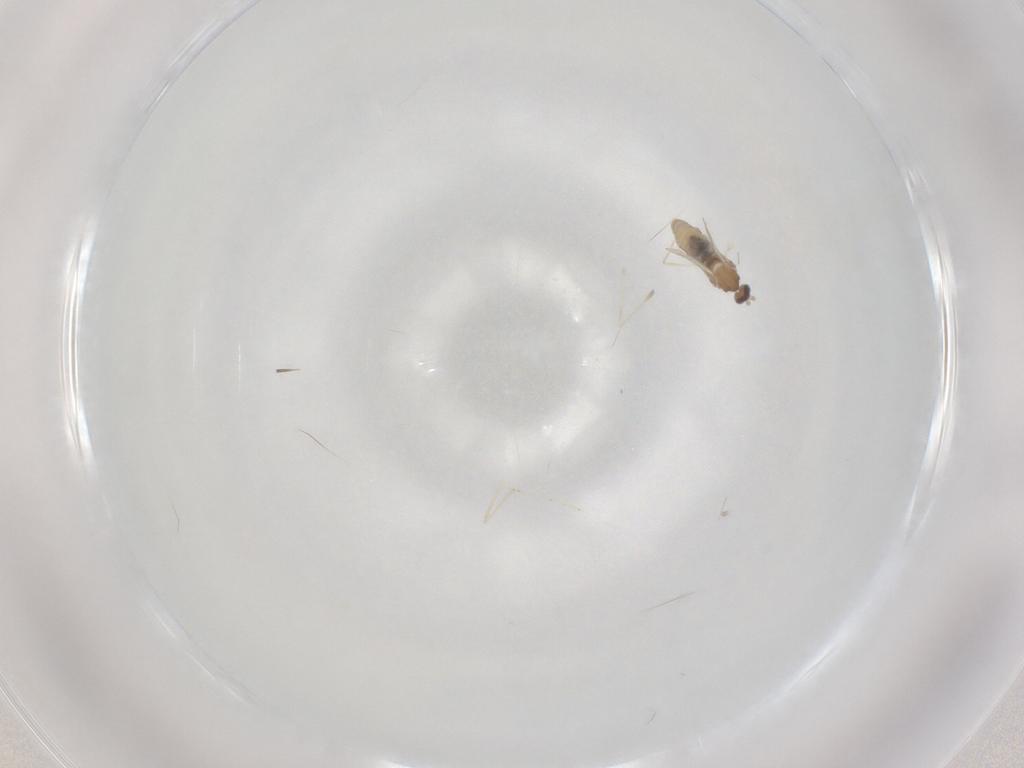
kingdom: Animalia
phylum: Arthropoda
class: Insecta
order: Diptera
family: Cecidomyiidae
